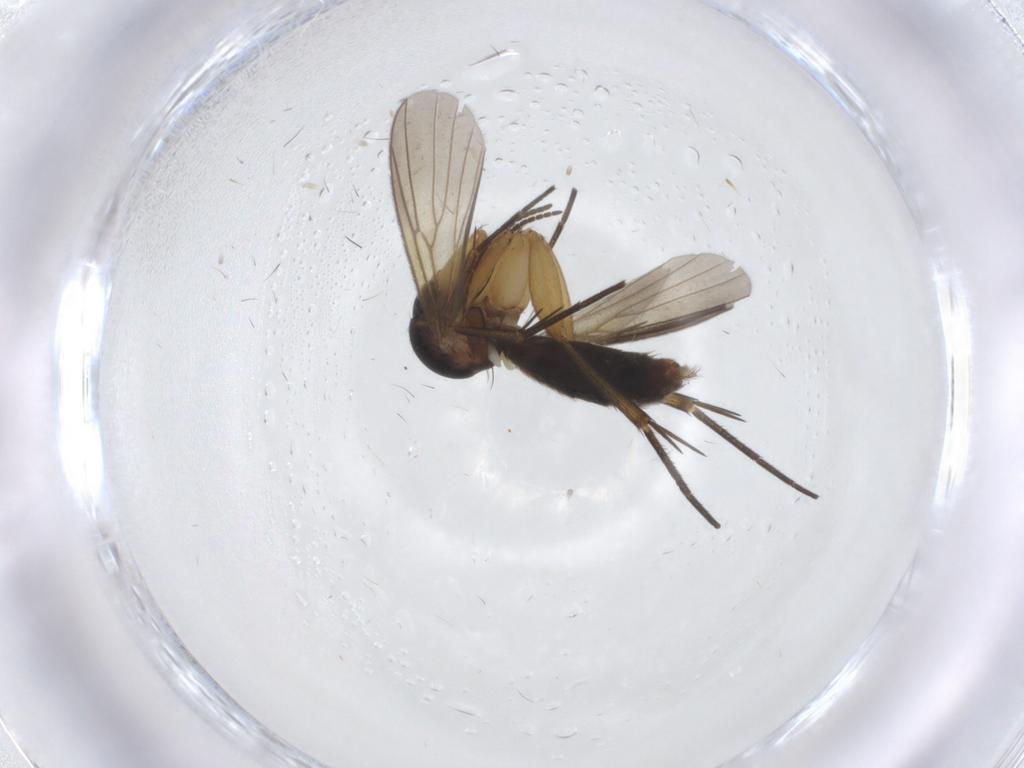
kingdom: Animalia
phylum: Arthropoda
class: Insecta
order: Diptera
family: Mycetophilidae
